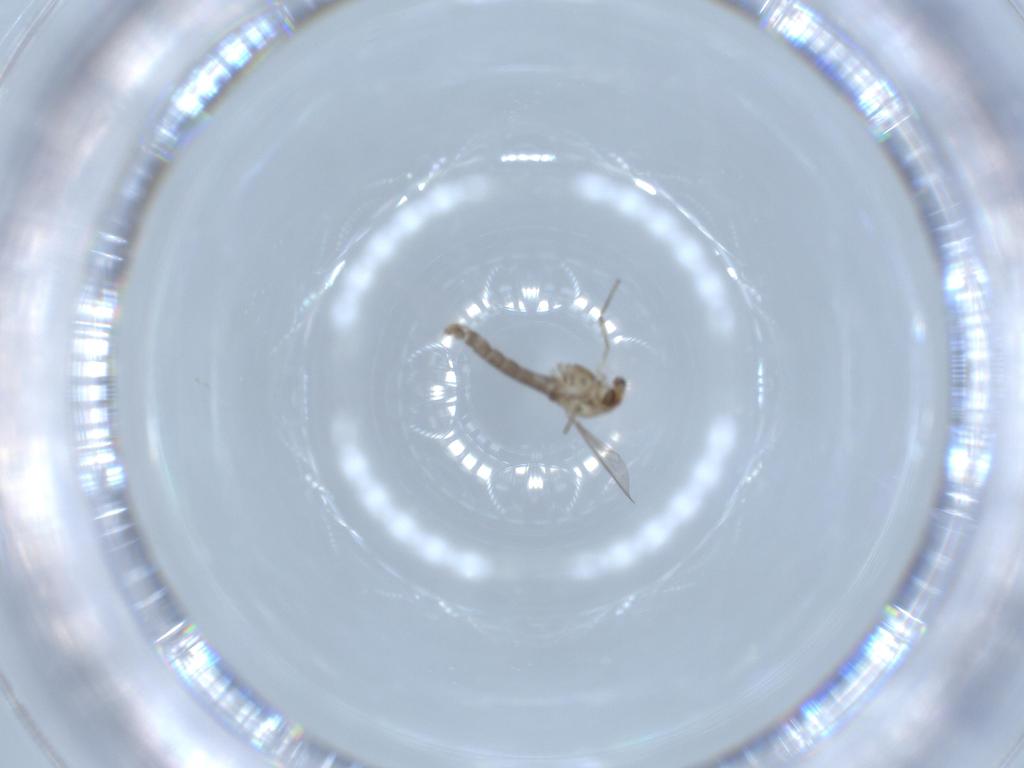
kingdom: Animalia
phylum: Arthropoda
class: Insecta
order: Diptera
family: Chironomidae
